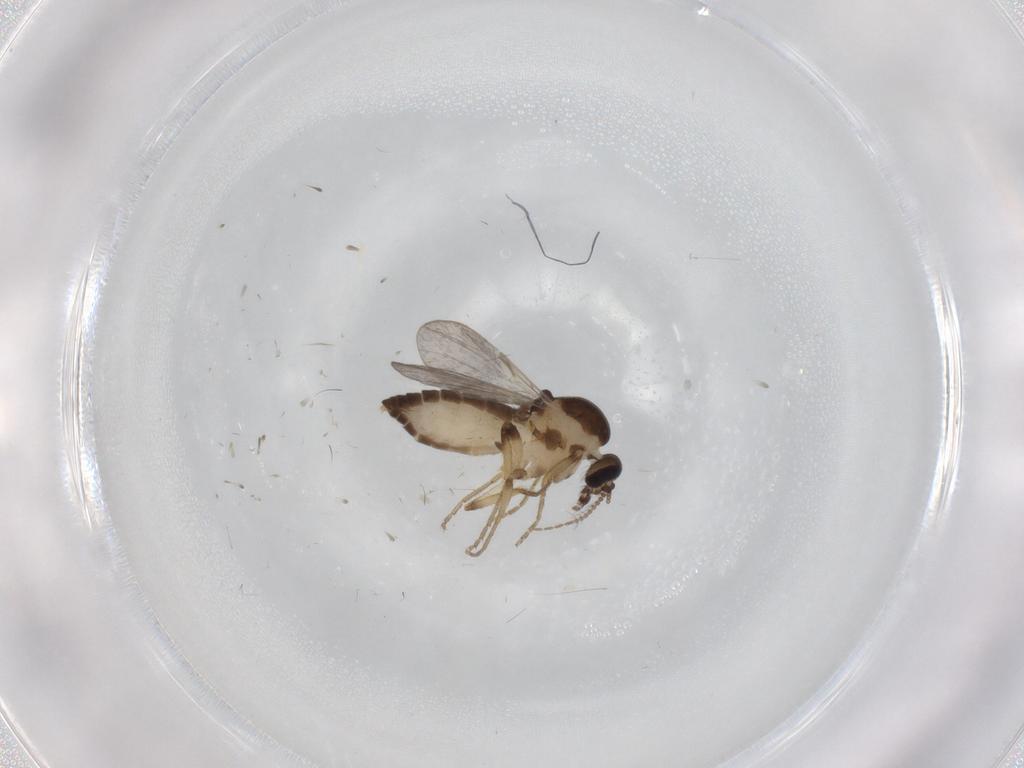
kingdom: Animalia
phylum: Arthropoda
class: Insecta
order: Diptera
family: Ceratopogonidae
